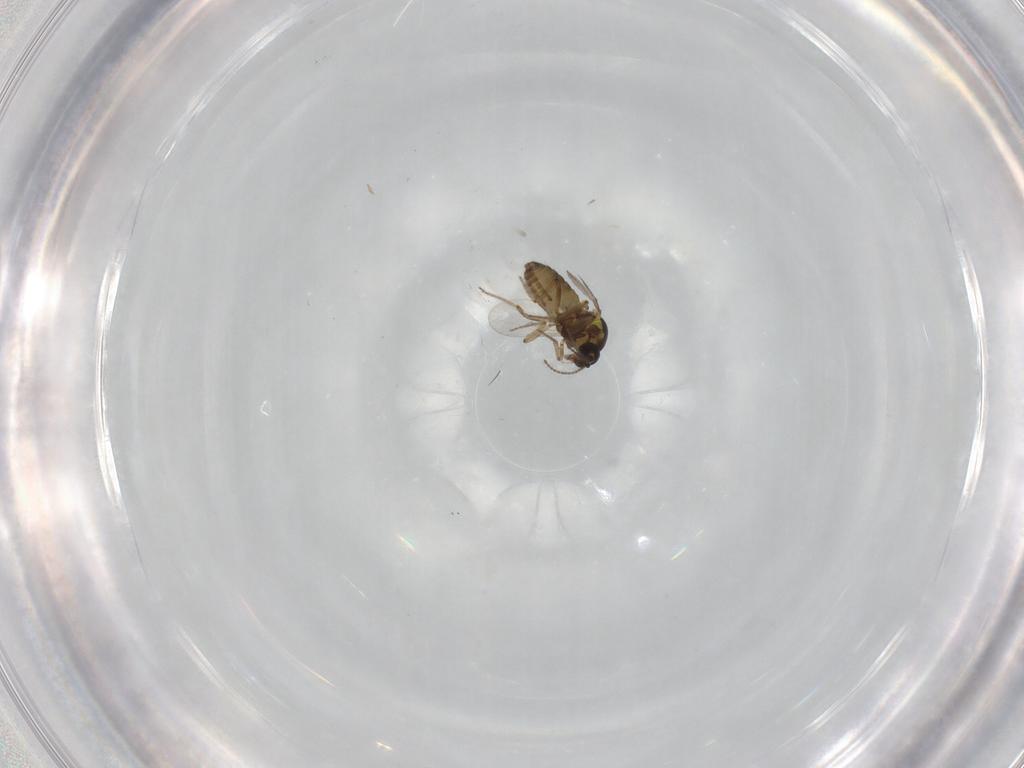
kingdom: Animalia
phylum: Arthropoda
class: Insecta
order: Diptera
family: Ceratopogonidae
